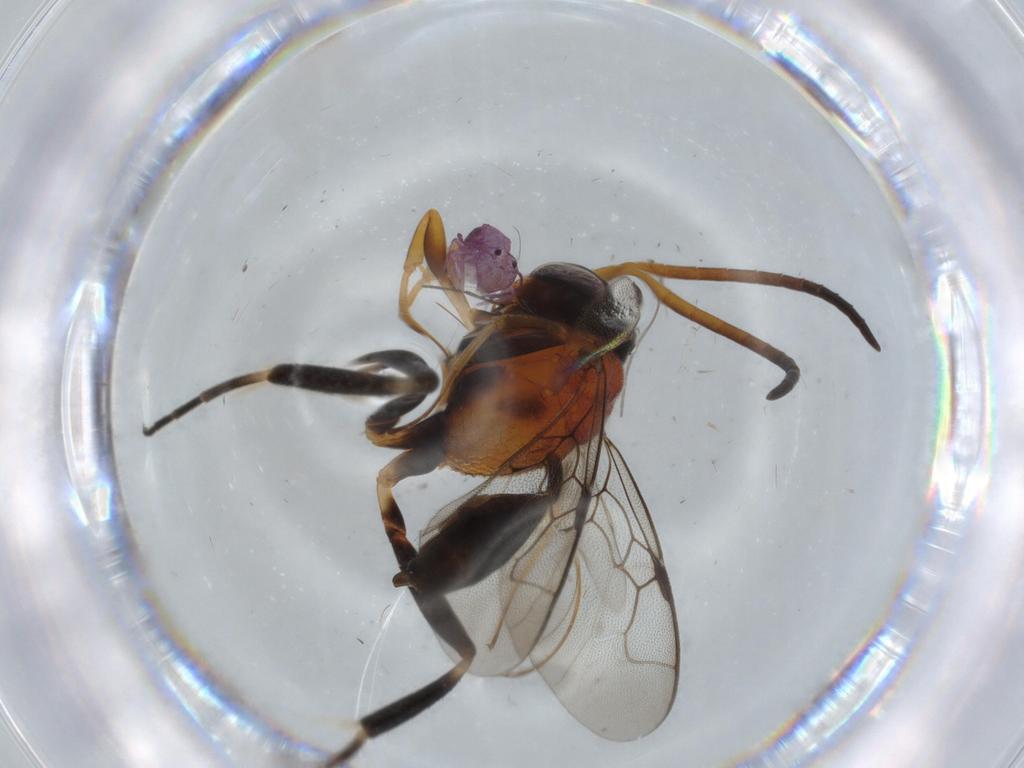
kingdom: Animalia
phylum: Arthropoda
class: Insecta
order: Hymenoptera
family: Evaniidae
